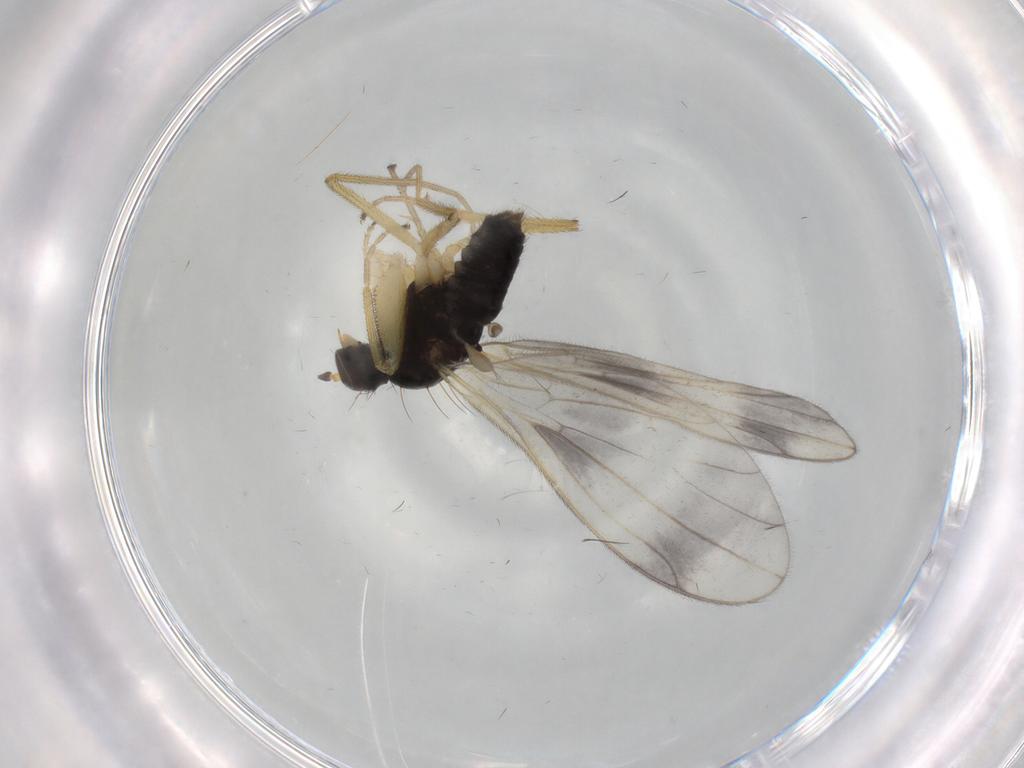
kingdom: Animalia
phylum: Arthropoda
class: Insecta
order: Diptera
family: Empididae
